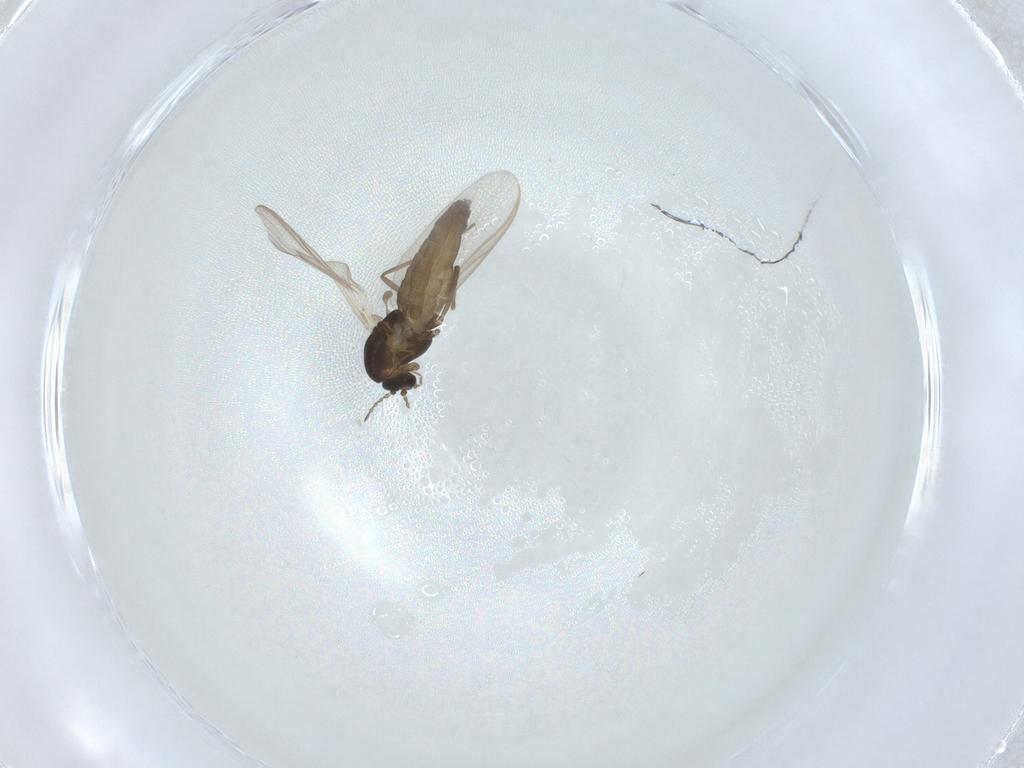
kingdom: Animalia
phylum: Arthropoda
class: Insecta
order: Diptera
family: Chironomidae
